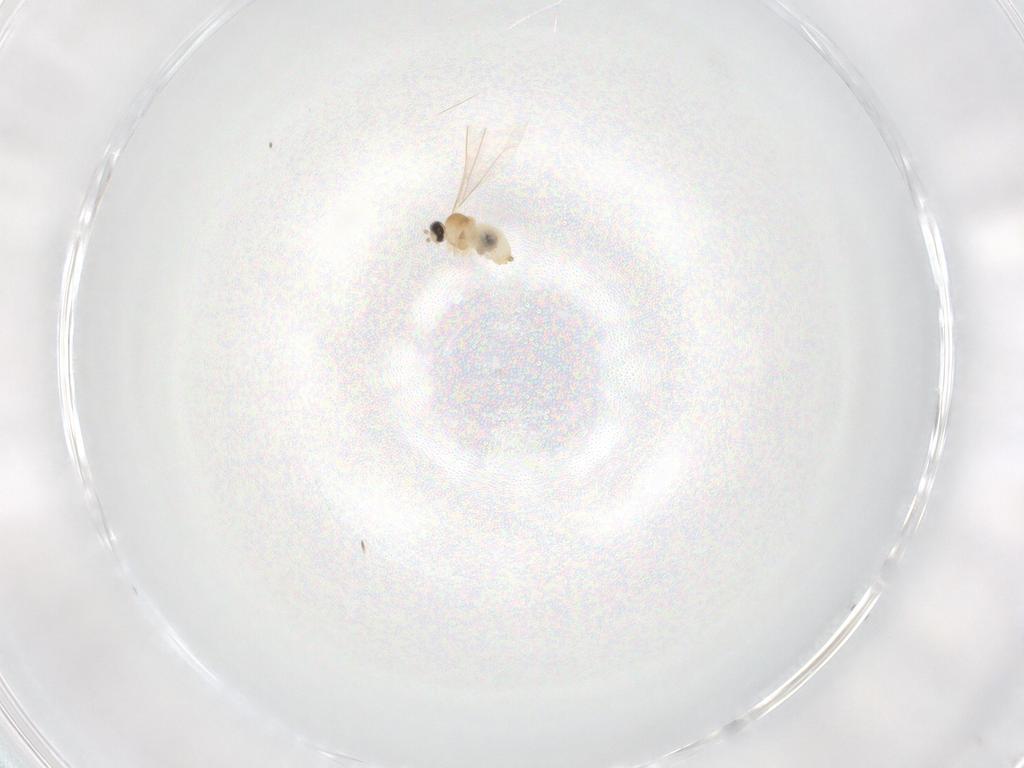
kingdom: Animalia
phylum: Arthropoda
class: Insecta
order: Diptera
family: Cecidomyiidae
